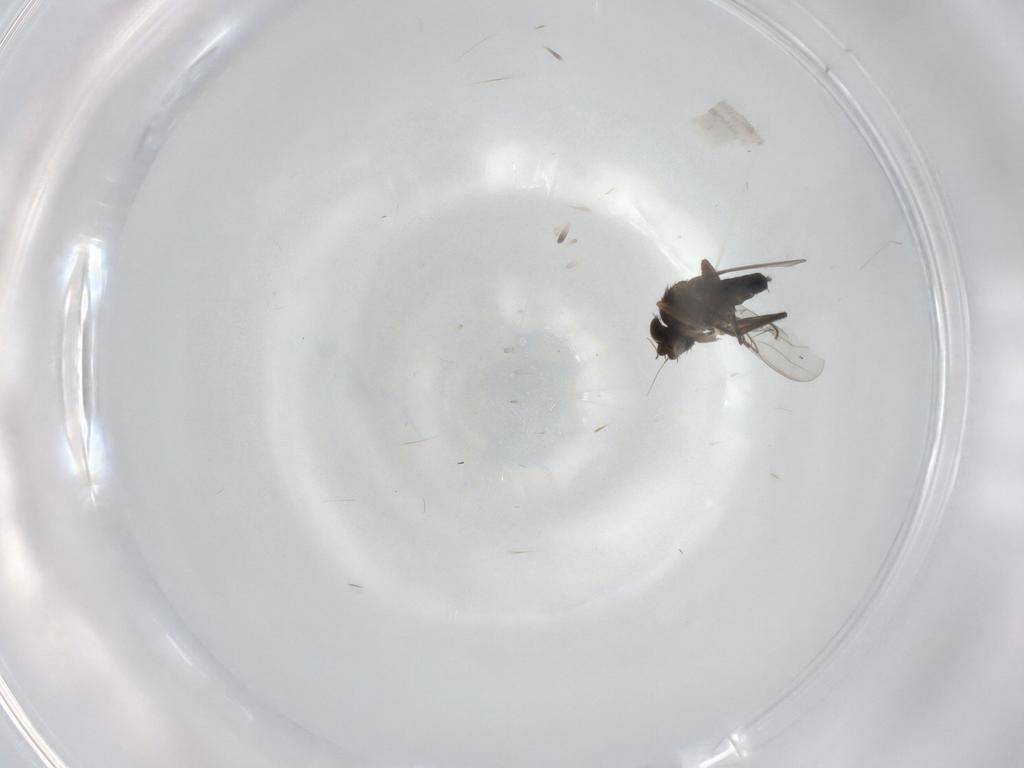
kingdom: Animalia
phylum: Arthropoda
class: Insecta
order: Diptera
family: Phoridae
